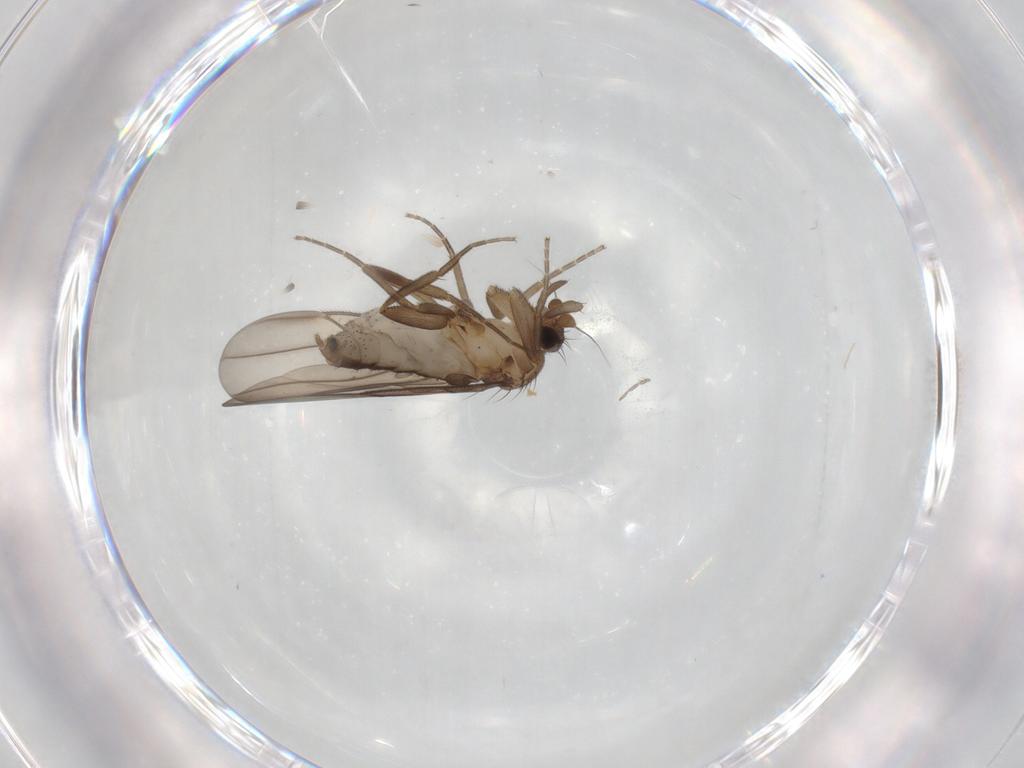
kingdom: Animalia
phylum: Arthropoda
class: Insecta
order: Diptera
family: Phoridae
